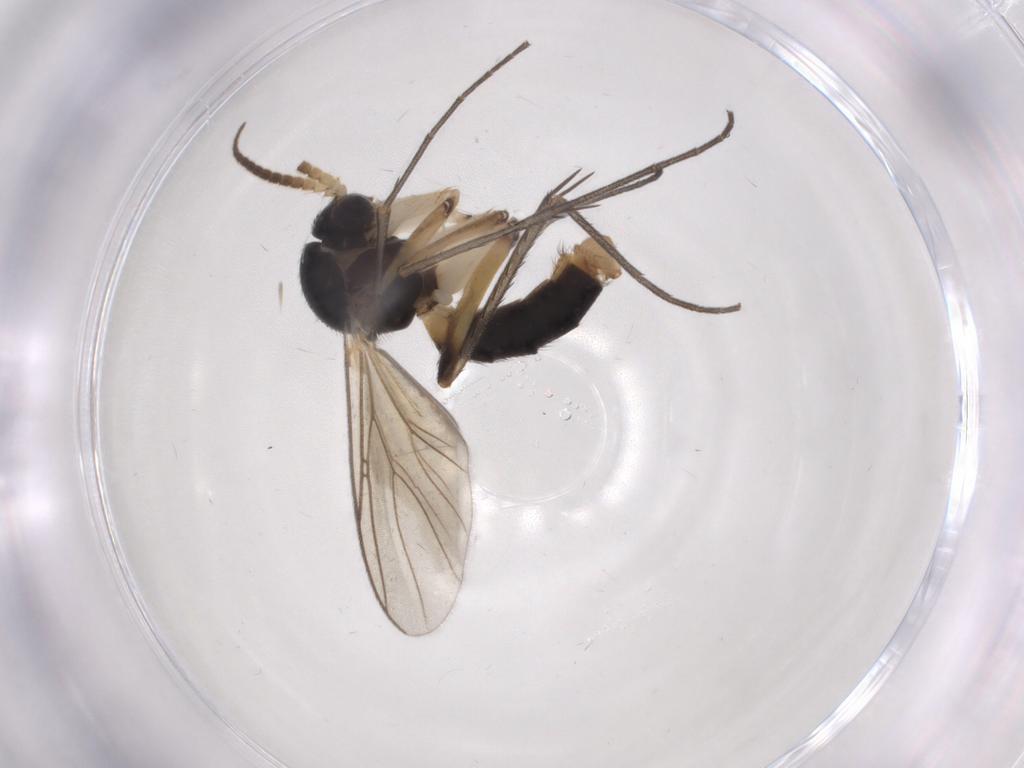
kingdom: Animalia
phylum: Arthropoda
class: Insecta
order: Diptera
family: Mycetophilidae
